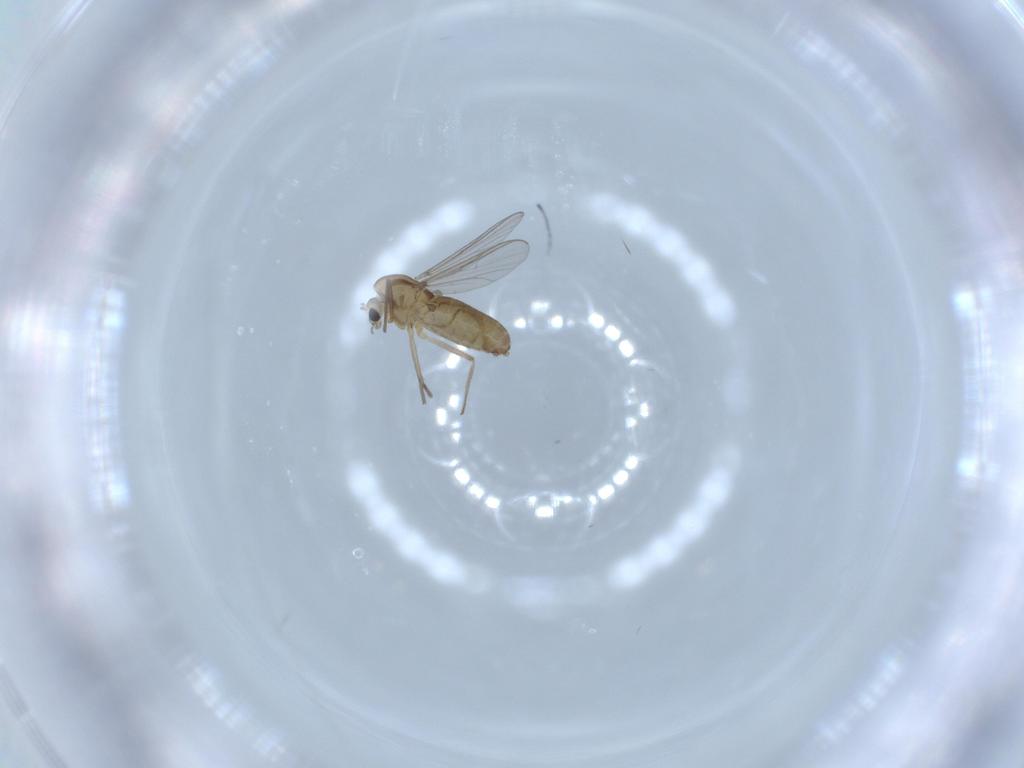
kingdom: Animalia
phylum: Arthropoda
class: Insecta
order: Diptera
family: Chironomidae
